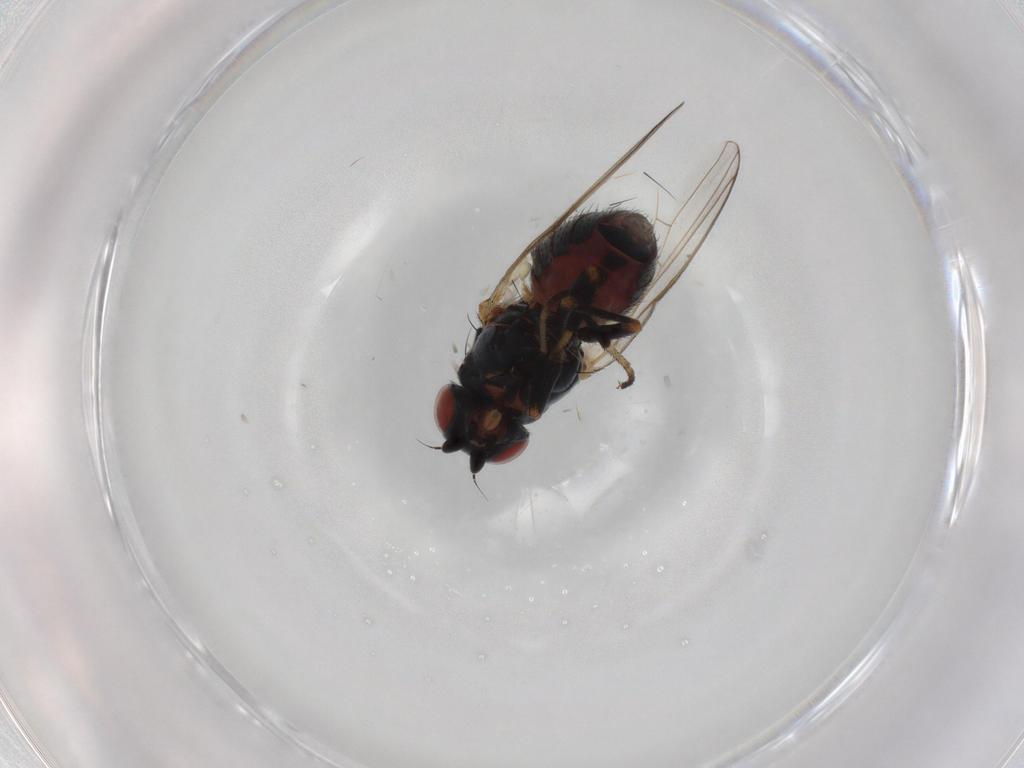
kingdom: Animalia
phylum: Arthropoda
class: Insecta
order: Diptera
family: Chamaemyiidae
